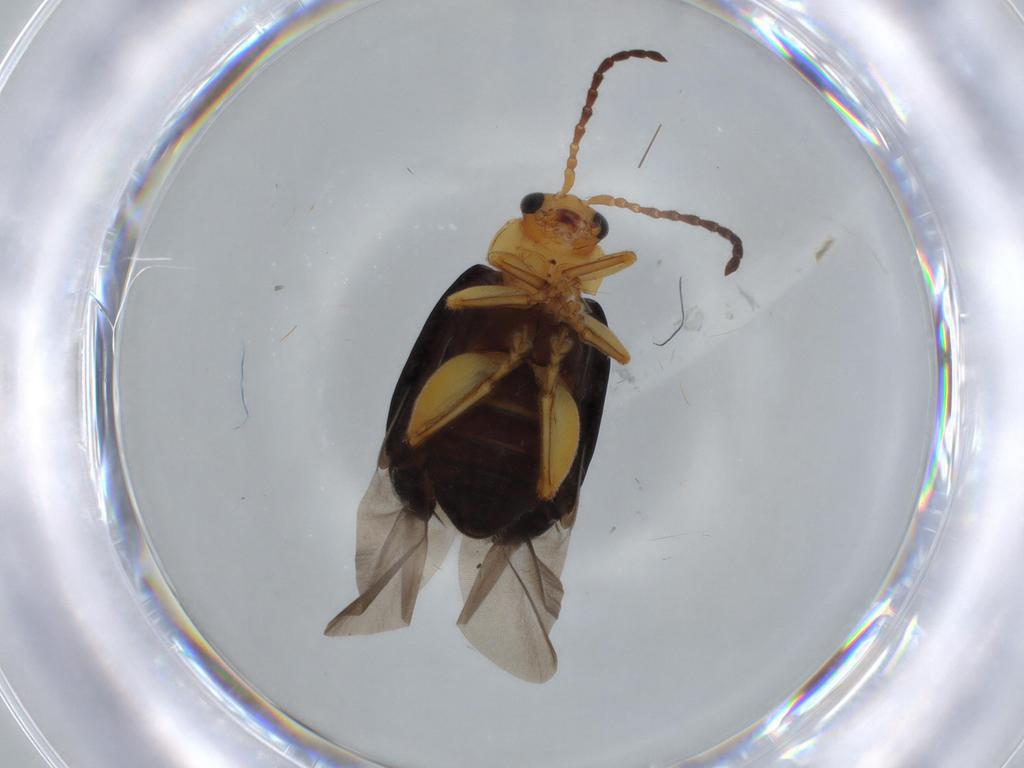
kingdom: Animalia
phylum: Arthropoda
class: Insecta
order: Coleoptera
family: Chrysomelidae
